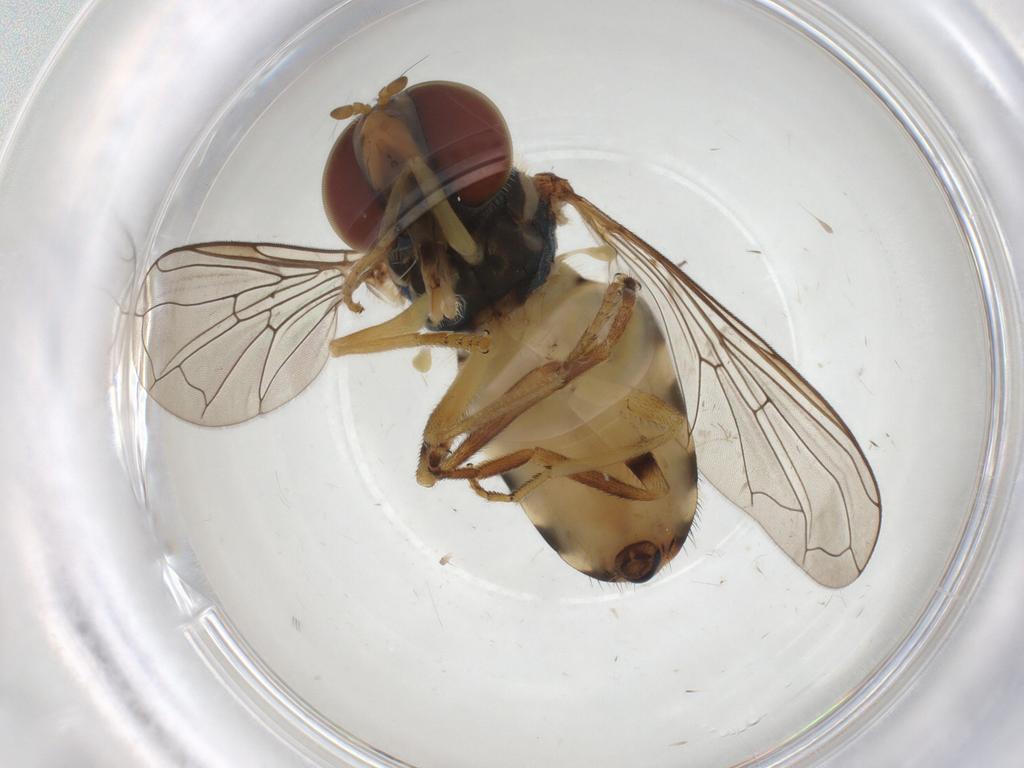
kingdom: Animalia
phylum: Arthropoda
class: Insecta
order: Diptera
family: Syrphidae
